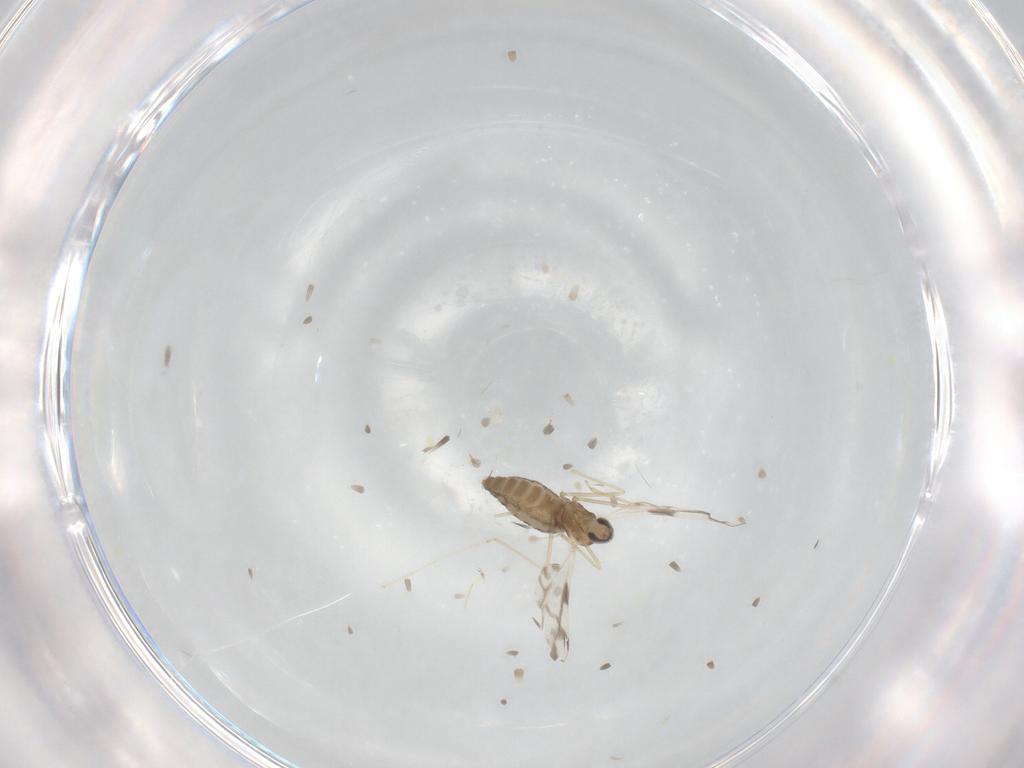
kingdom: Animalia
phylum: Arthropoda
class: Insecta
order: Diptera
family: Cecidomyiidae
